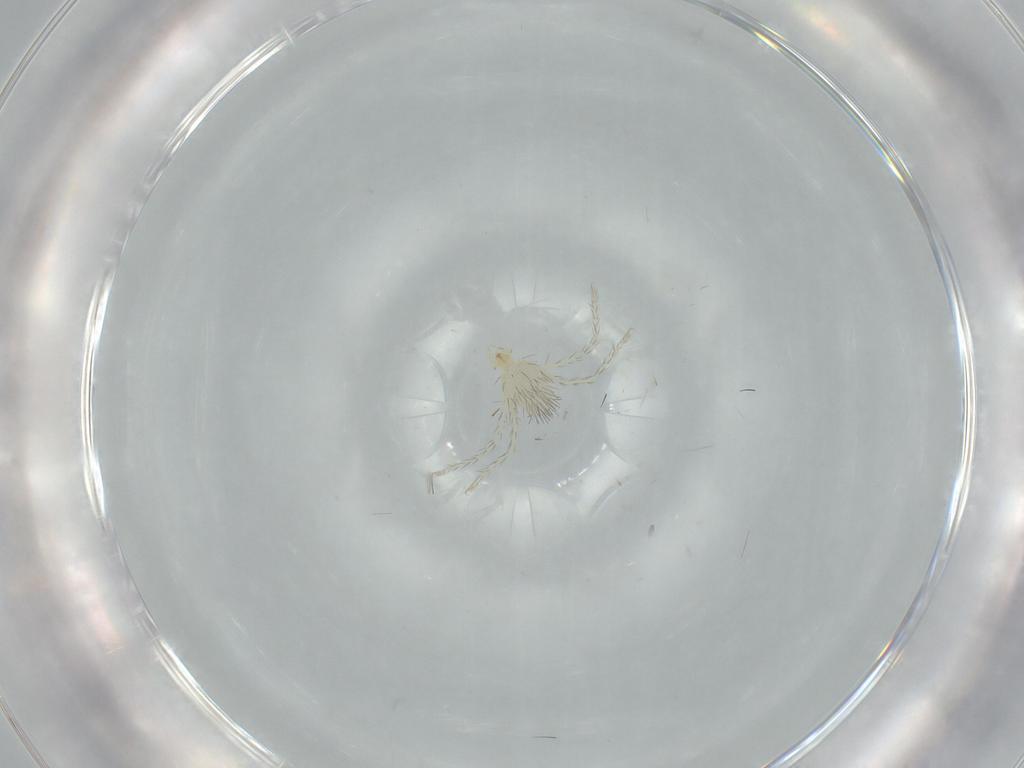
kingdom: Animalia
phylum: Arthropoda
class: Arachnida
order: Trombidiformes
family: Erythraeidae
